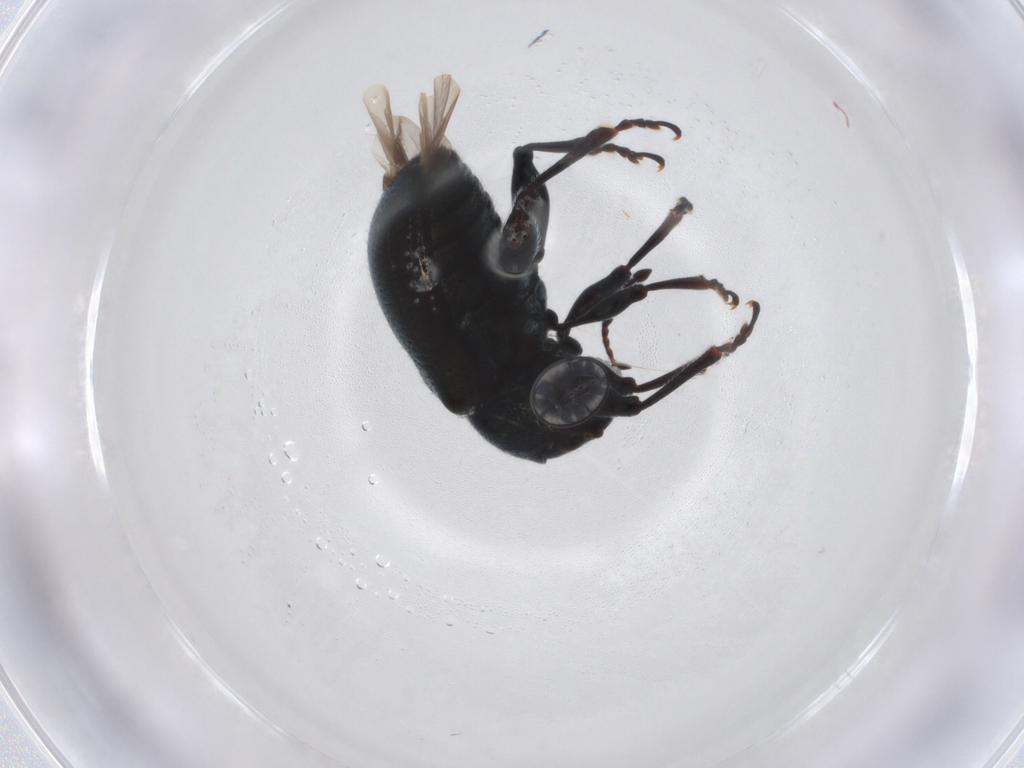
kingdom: Animalia
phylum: Arthropoda
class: Insecta
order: Coleoptera
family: Chrysomelidae
